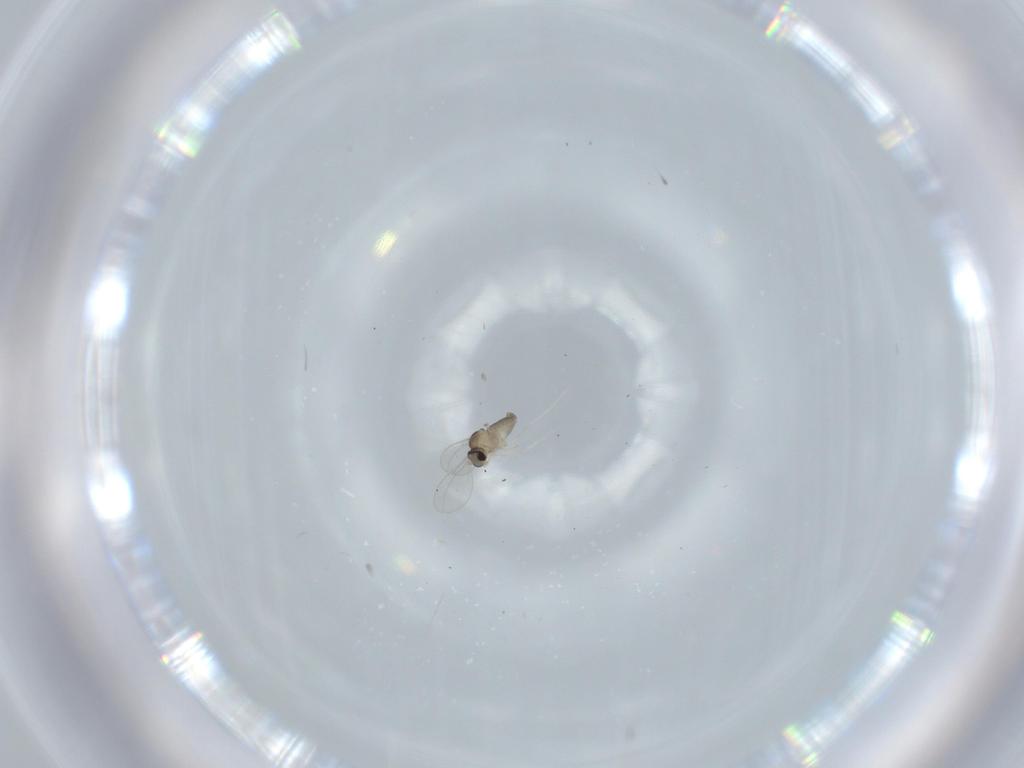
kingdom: Animalia
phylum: Arthropoda
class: Insecta
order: Diptera
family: Cecidomyiidae
